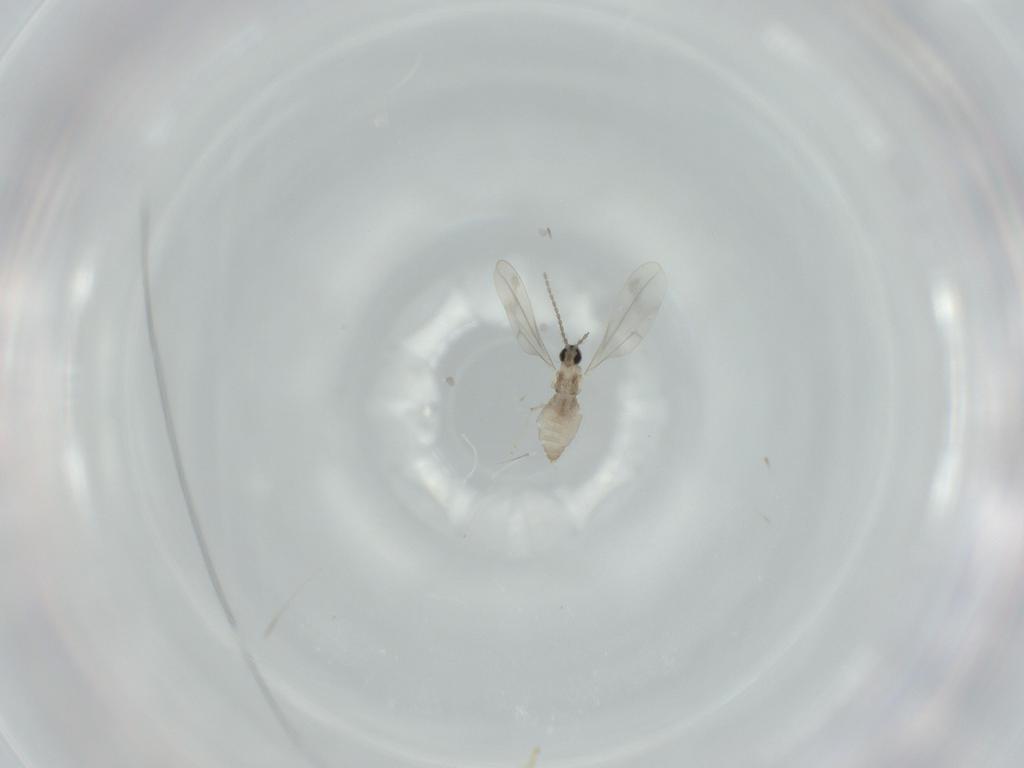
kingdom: Animalia
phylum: Arthropoda
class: Insecta
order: Diptera
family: Cecidomyiidae
